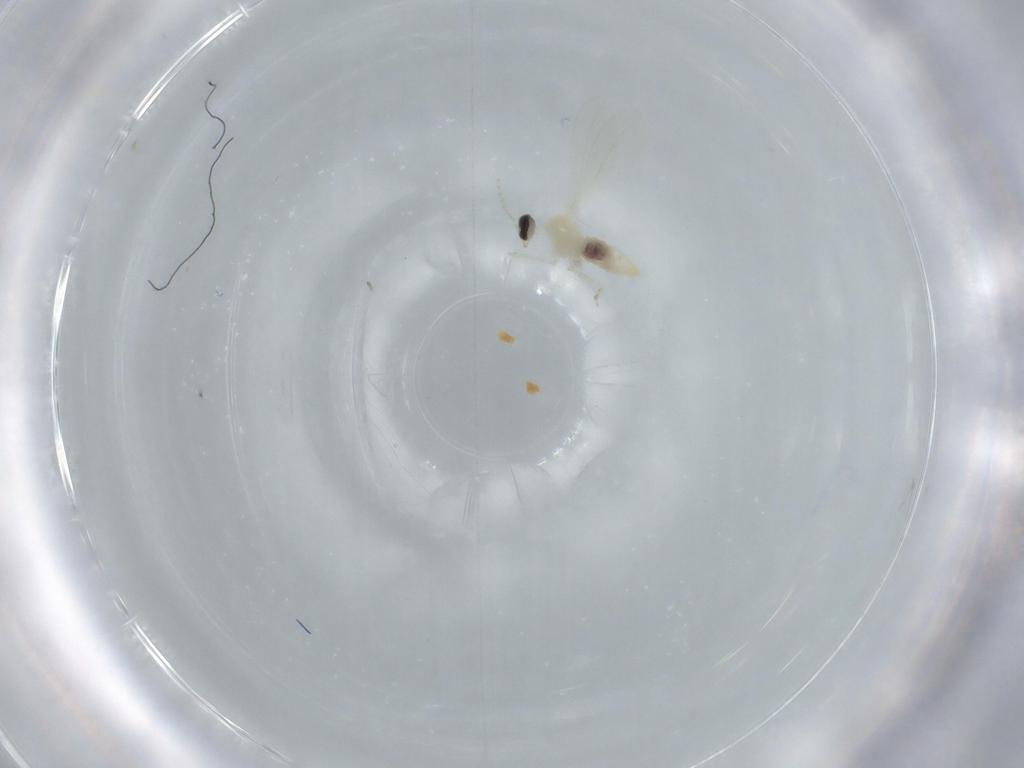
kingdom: Animalia
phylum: Arthropoda
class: Insecta
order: Diptera
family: Cecidomyiidae
